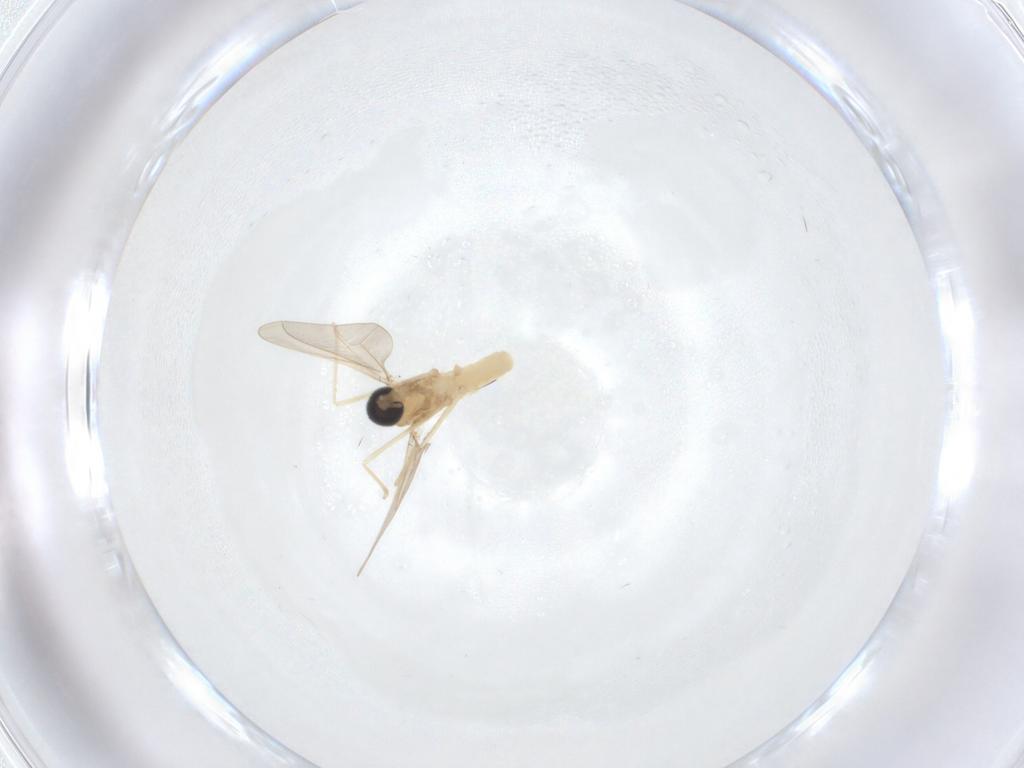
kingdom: Animalia
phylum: Arthropoda
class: Insecta
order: Diptera
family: Cecidomyiidae
